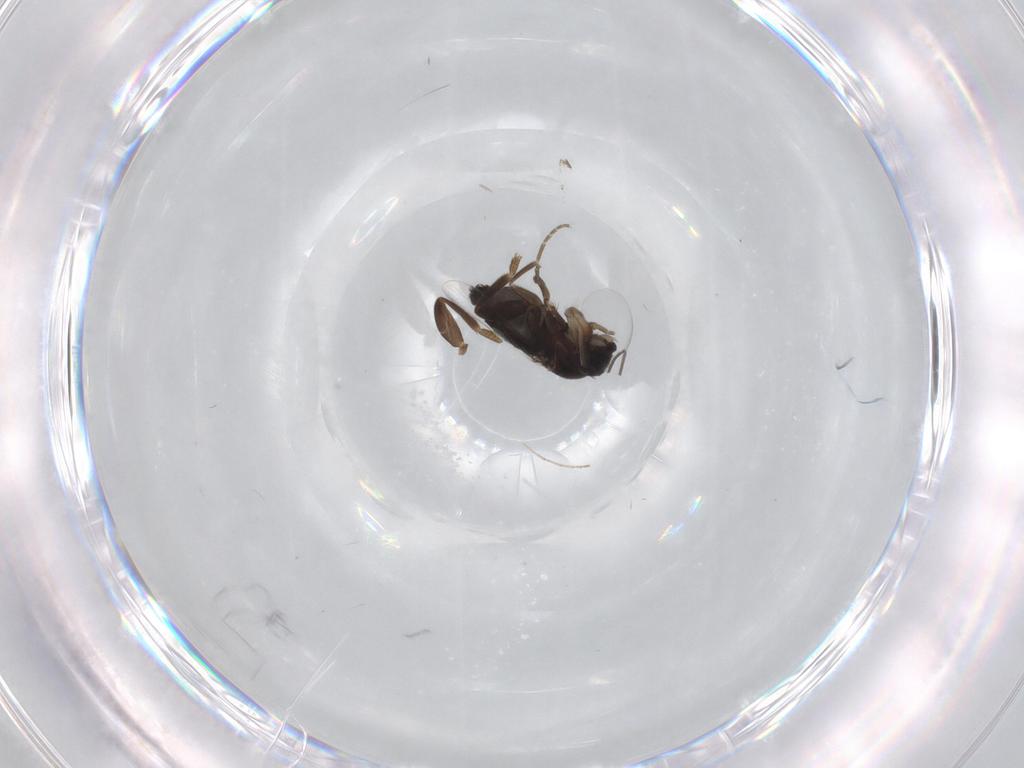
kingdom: Animalia
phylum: Arthropoda
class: Insecta
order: Diptera
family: Phoridae
